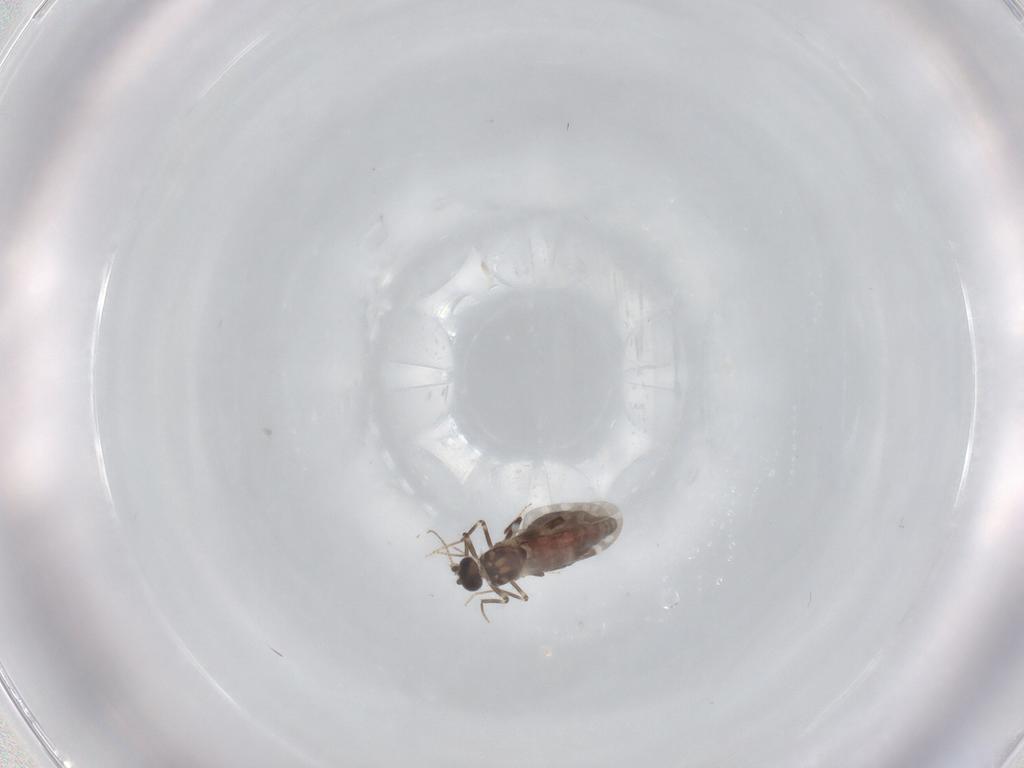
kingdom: Animalia
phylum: Arthropoda
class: Insecta
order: Diptera
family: Ceratopogonidae
